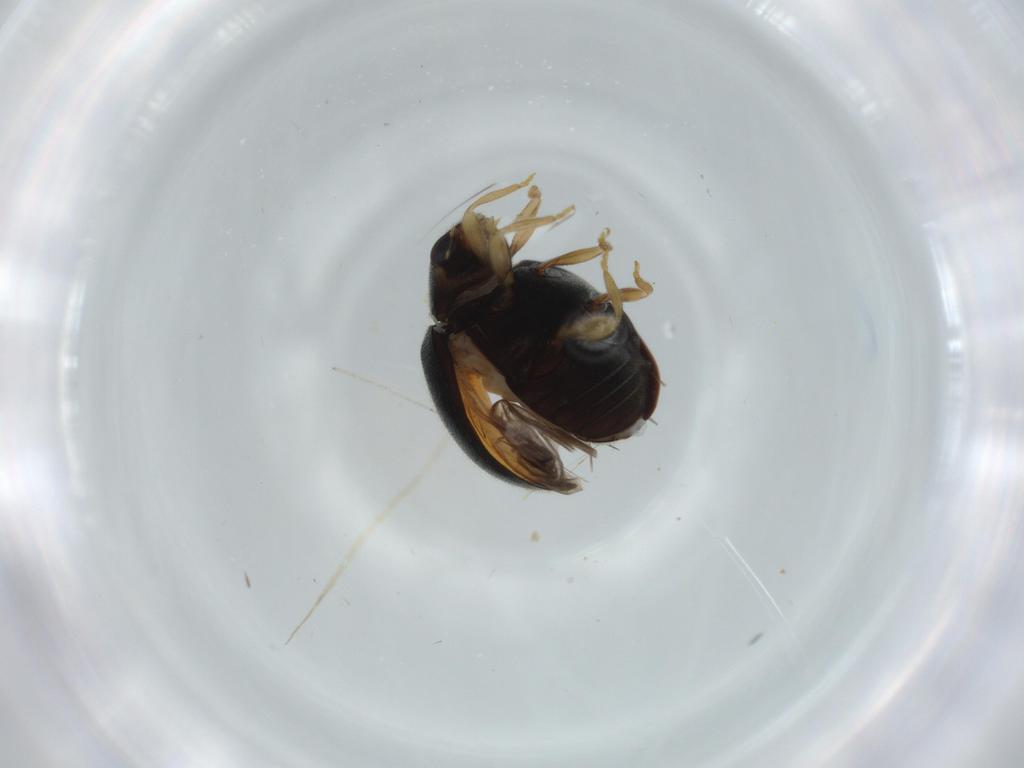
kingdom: Animalia
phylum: Arthropoda
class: Insecta
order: Coleoptera
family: Coccinellidae
